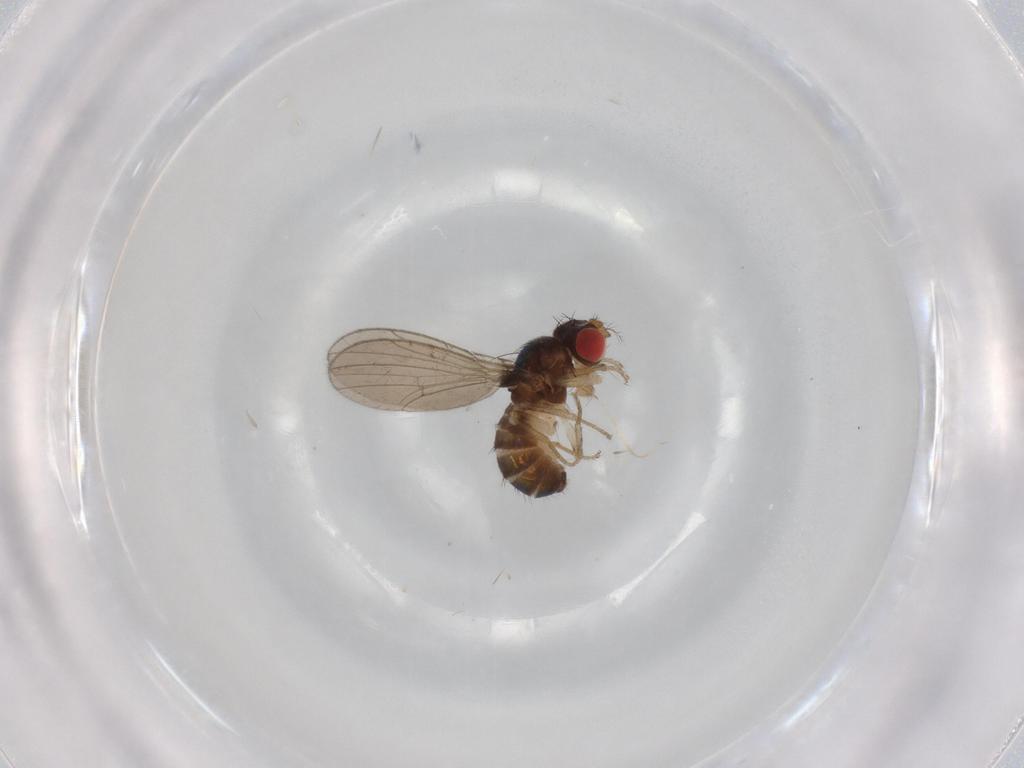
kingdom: Animalia
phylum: Arthropoda
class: Insecta
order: Diptera
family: Drosophilidae
